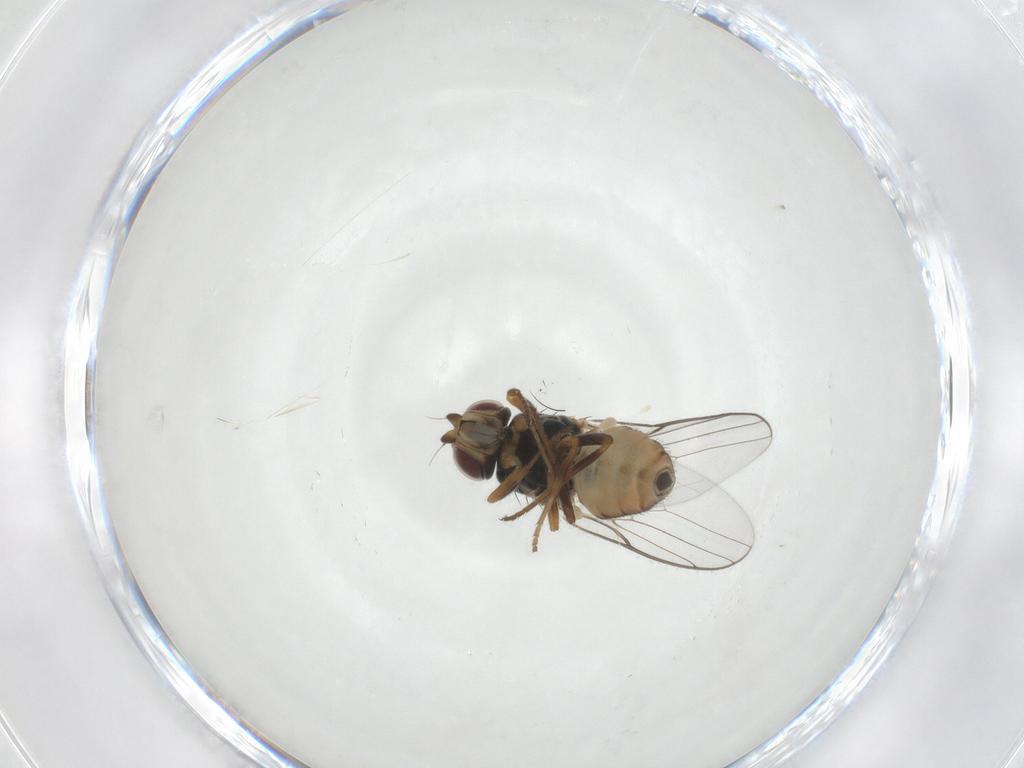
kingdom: Animalia
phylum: Arthropoda
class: Insecta
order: Diptera
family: Chloropidae
